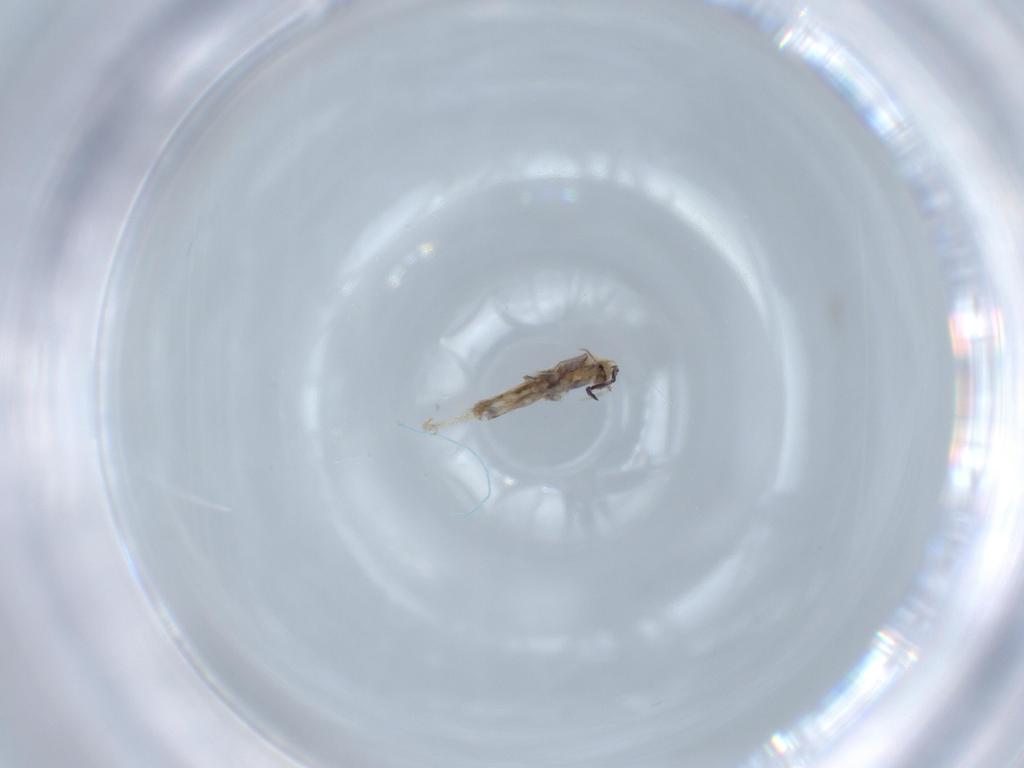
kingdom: Animalia
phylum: Arthropoda
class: Collembola
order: Poduromorpha
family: Hypogastruridae
